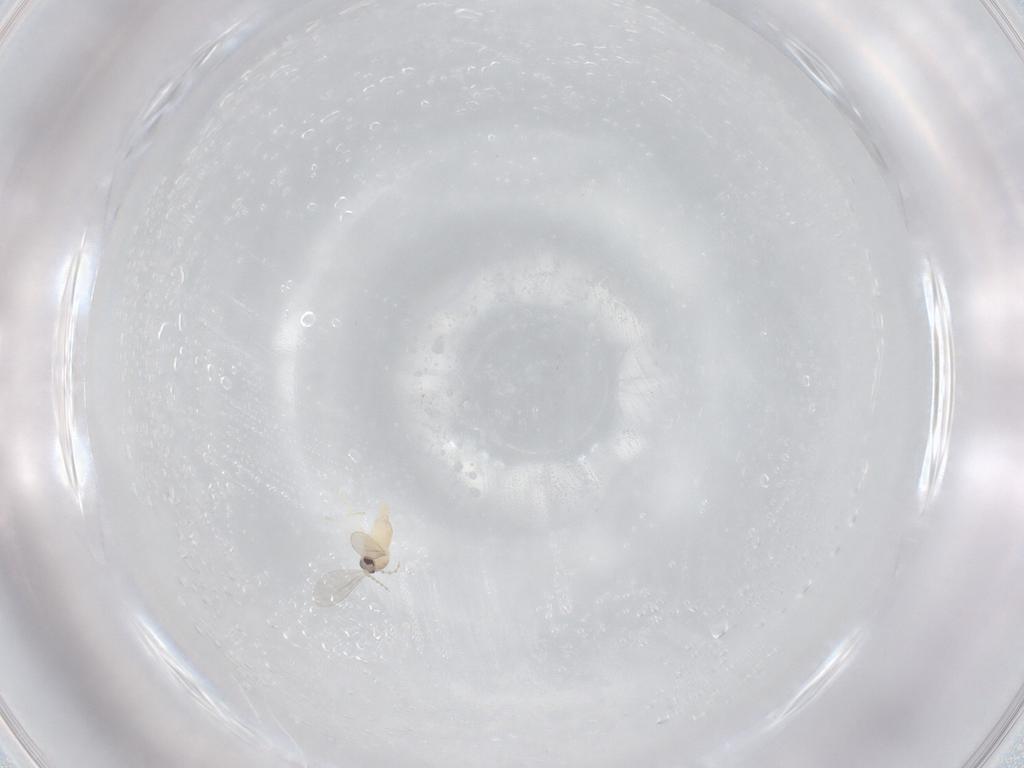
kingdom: Animalia
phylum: Arthropoda
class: Insecta
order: Diptera
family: Cecidomyiidae
